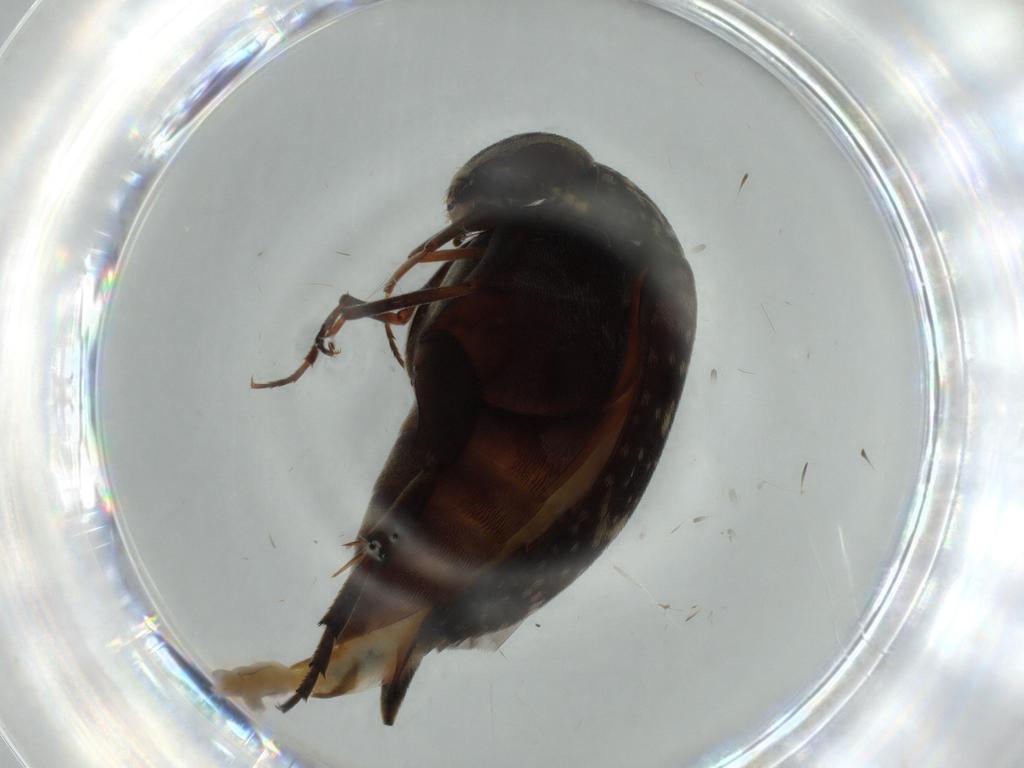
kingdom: Animalia
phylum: Arthropoda
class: Insecta
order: Coleoptera
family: Coccinellidae
